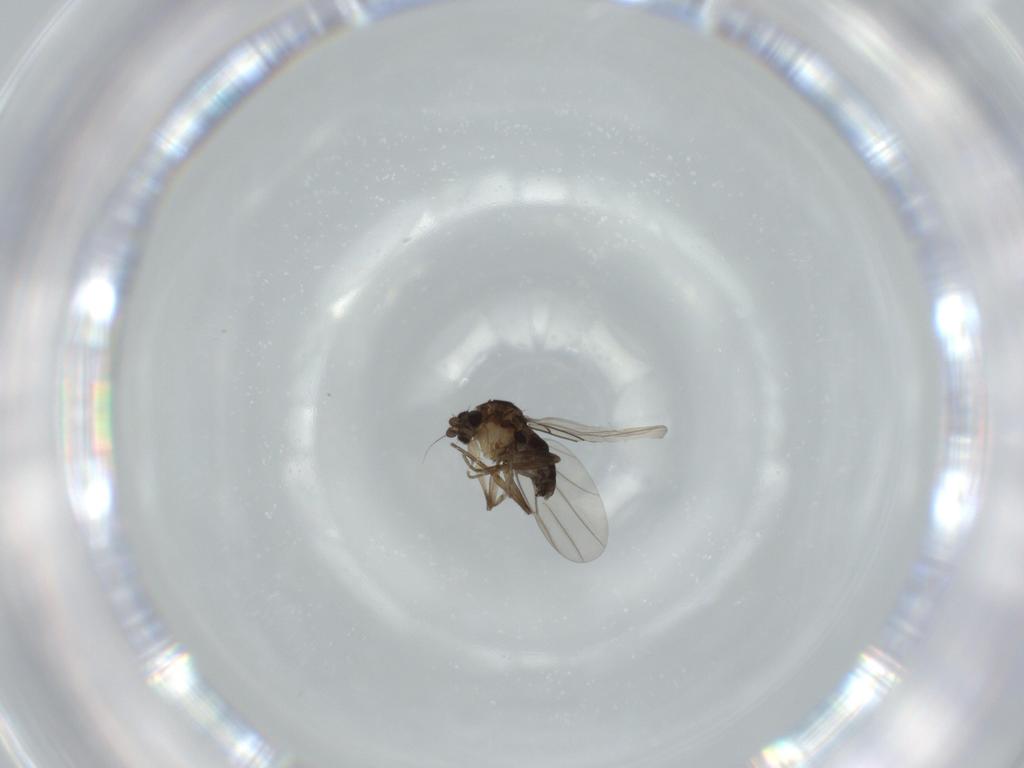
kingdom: Animalia
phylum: Arthropoda
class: Insecta
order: Diptera
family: Phoridae
